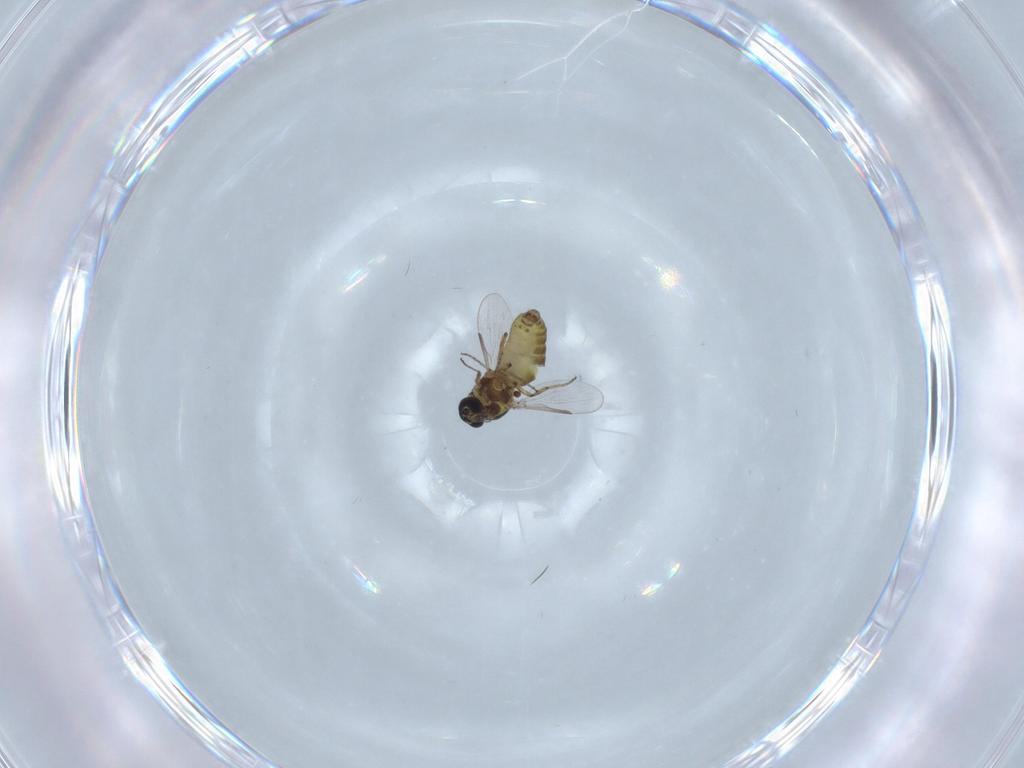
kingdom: Animalia
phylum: Arthropoda
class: Insecta
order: Diptera
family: Ceratopogonidae
